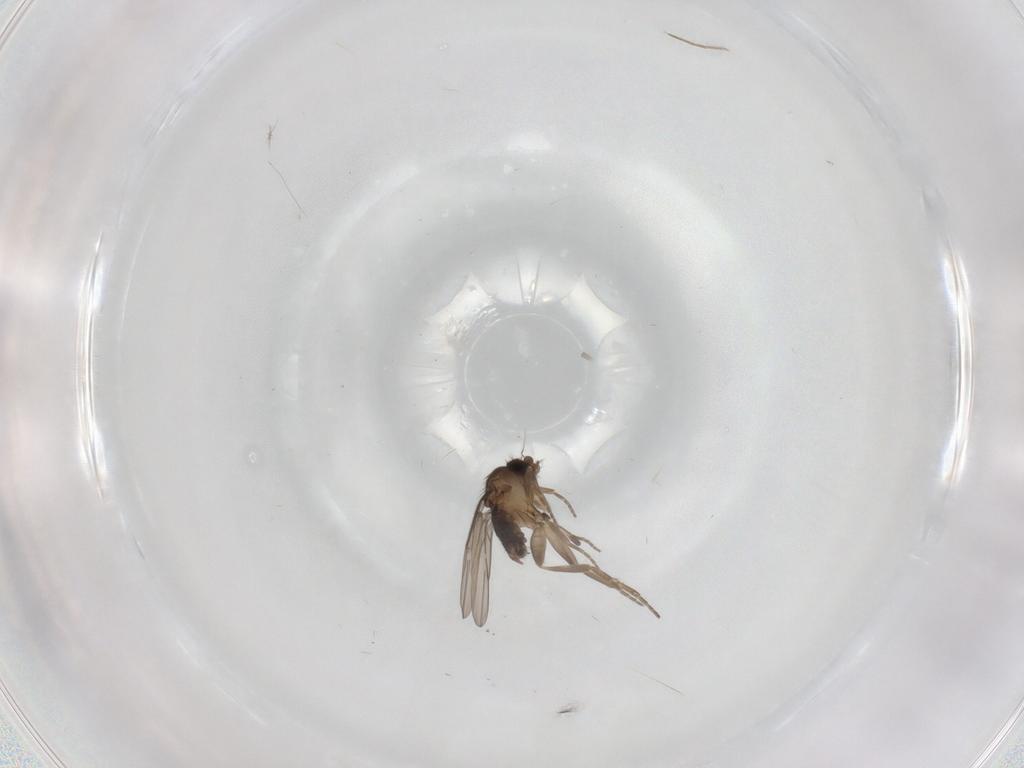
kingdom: Animalia
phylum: Arthropoda
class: Insecta
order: Diptera
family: Chironomidae
